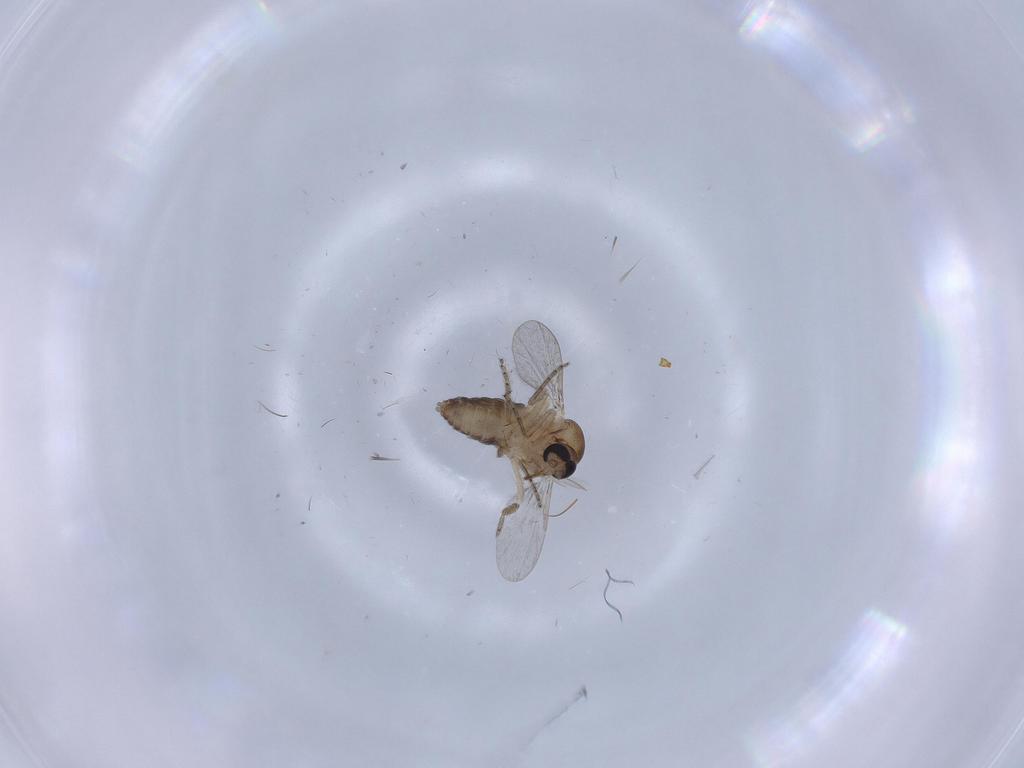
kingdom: Animalia
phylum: Arthropoda
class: Insecta
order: Diptera
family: Ceratopogonidae
